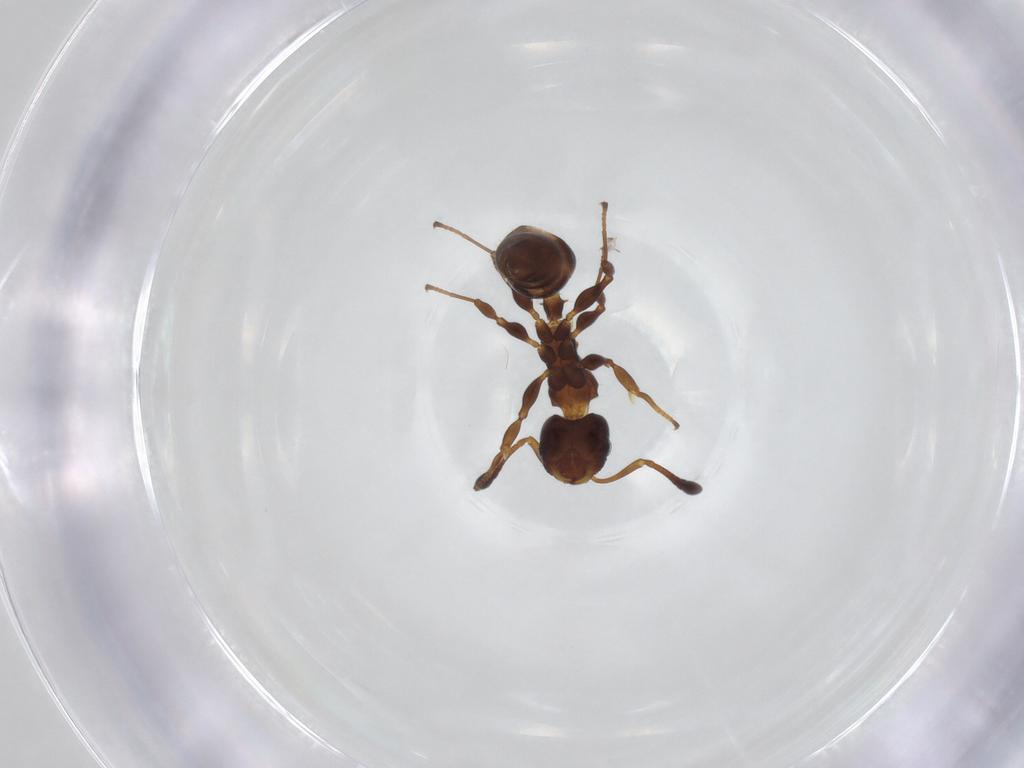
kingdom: Animalia
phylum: Arthropoda
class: Insecta
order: Hymenoptera
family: Formicidae
